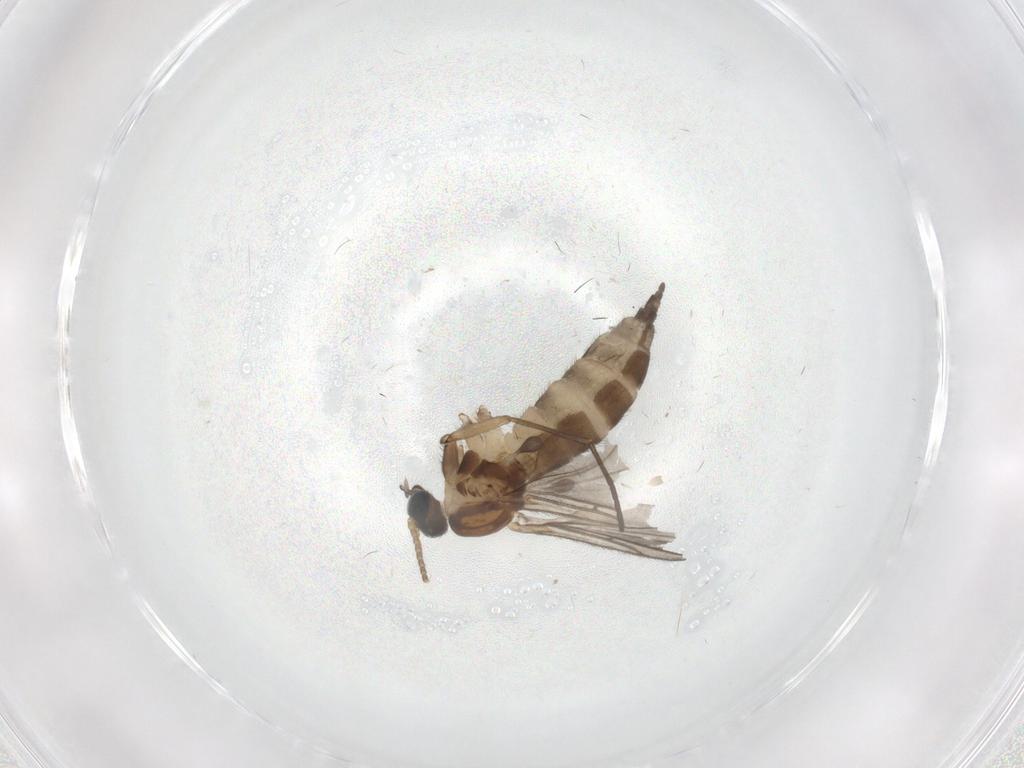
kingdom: Animalia
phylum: Arthropoda
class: Insecta
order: Diptera
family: Sciaridae
